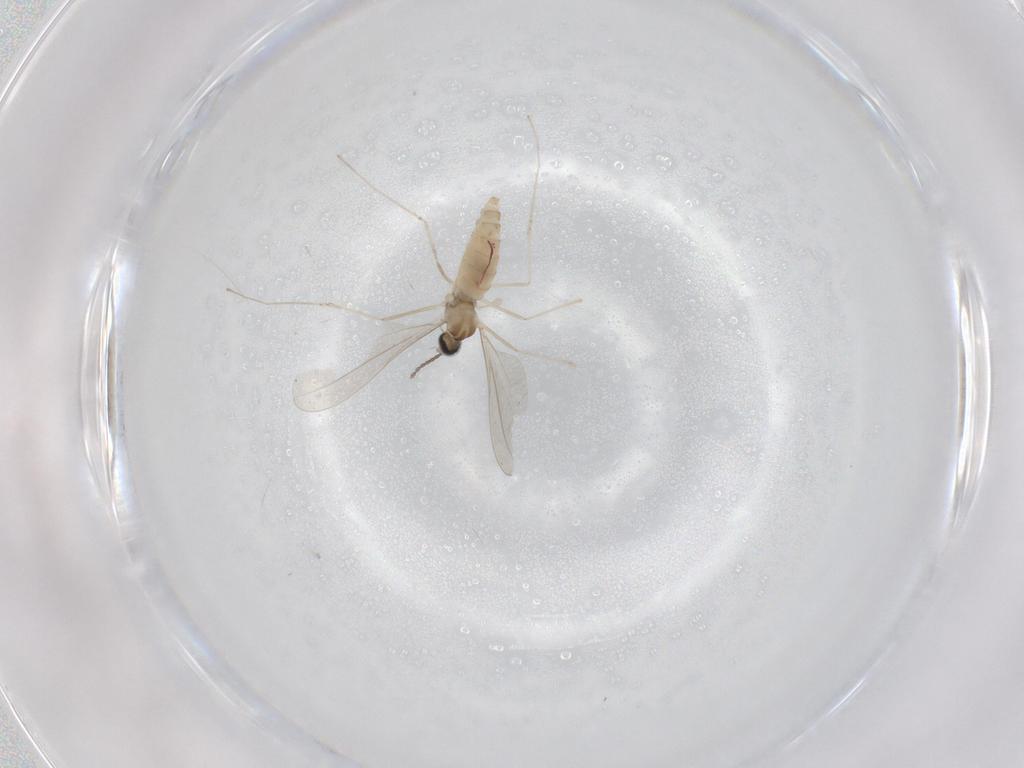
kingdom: Animalia
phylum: Arthropoda
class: Insecta
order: Diptera
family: Cecidomyiidae
